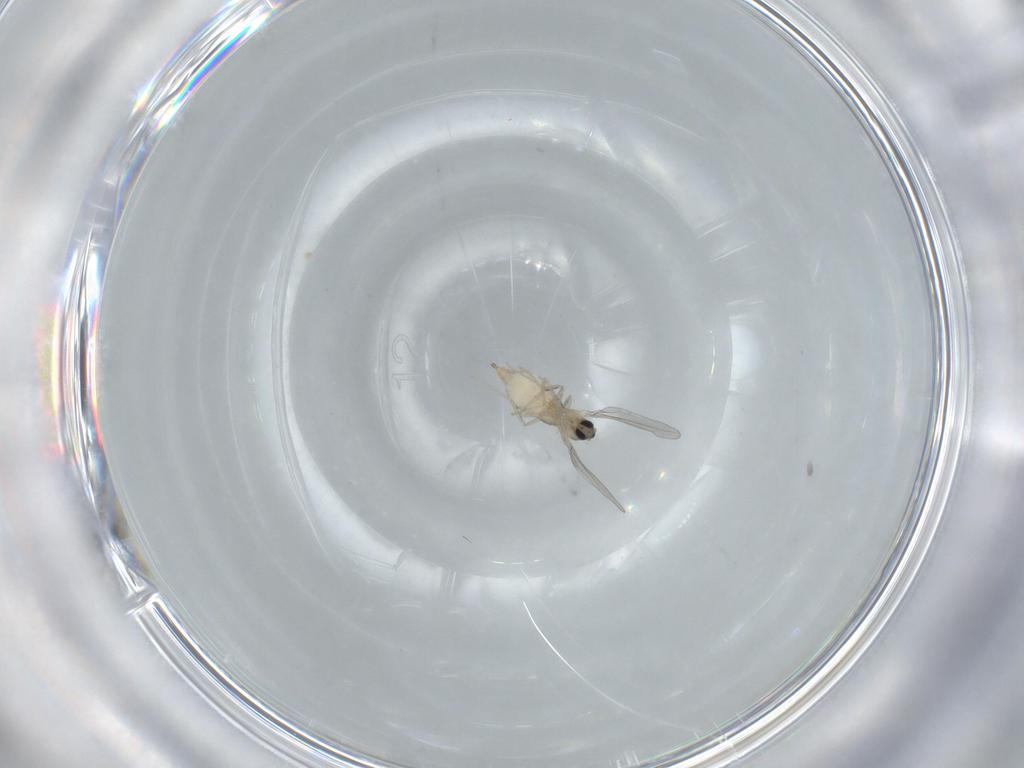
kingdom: Animalia
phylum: Arthropoda
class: Insecta
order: Diptera
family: Cecidomyiidae
